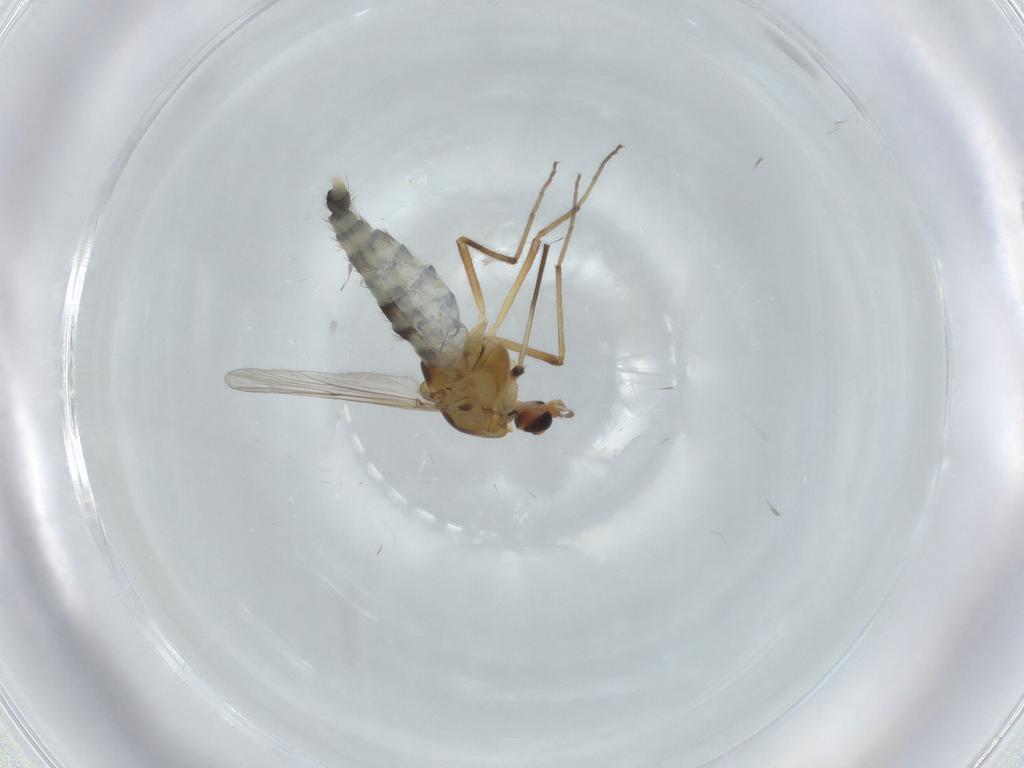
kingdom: Animalia
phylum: Arthropoda
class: Insecta
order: Diptera
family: Chironomidae
